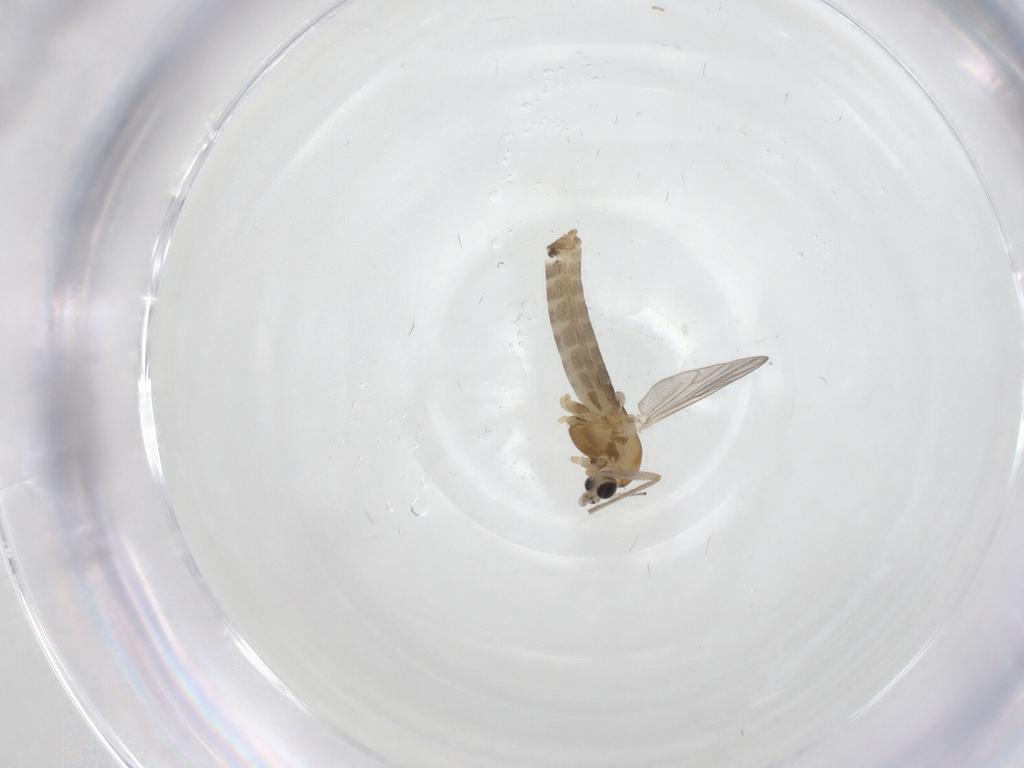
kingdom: Animalia
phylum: Arthropoda
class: Insecta
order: Diptera
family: Chironomidae
